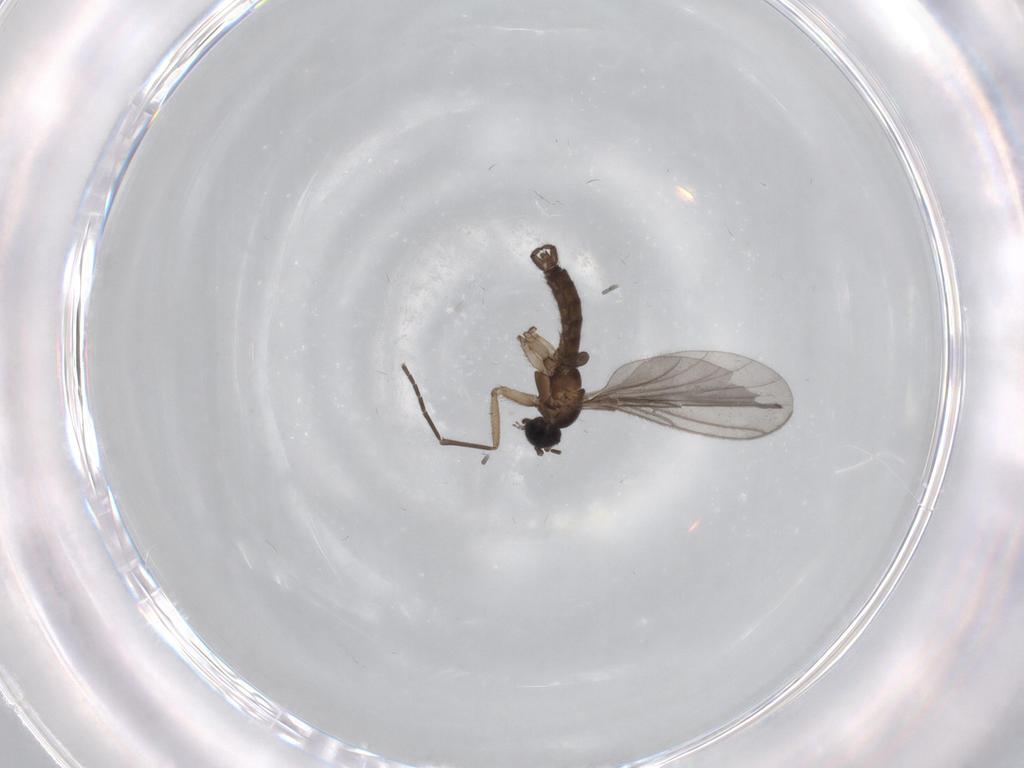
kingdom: Animalia
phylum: Arthropoda
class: Insecta
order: Diptera
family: Sciaridae
